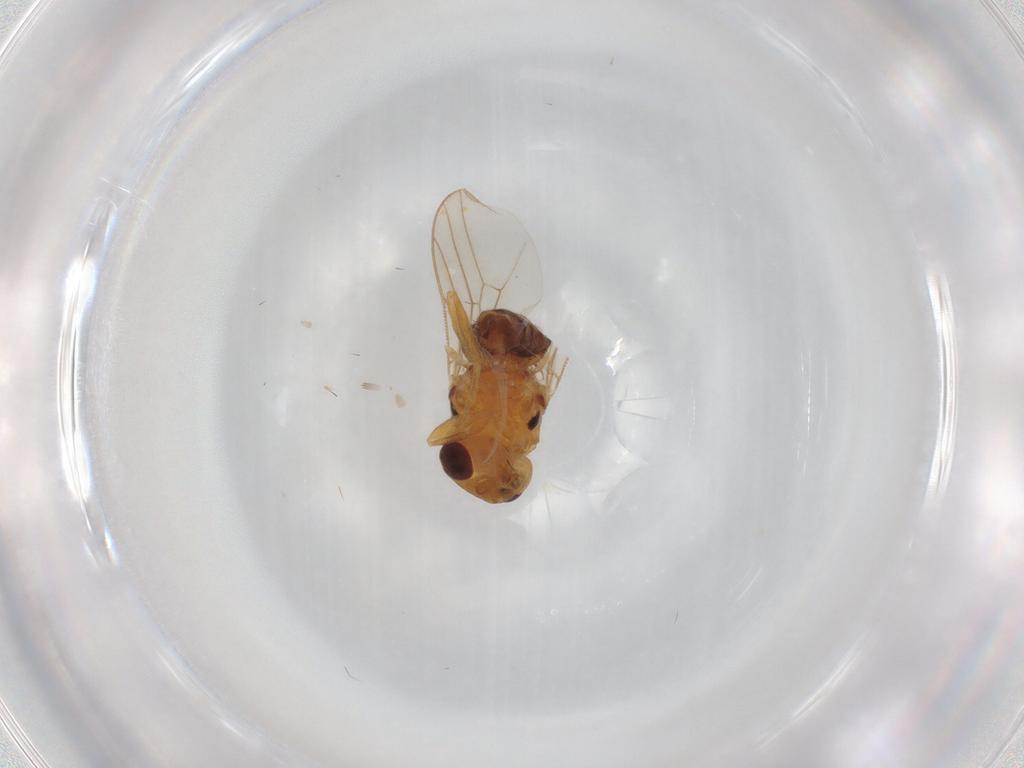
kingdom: Animalia
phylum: Arthropoda
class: Insecta
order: Diptera
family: Chloropidae
